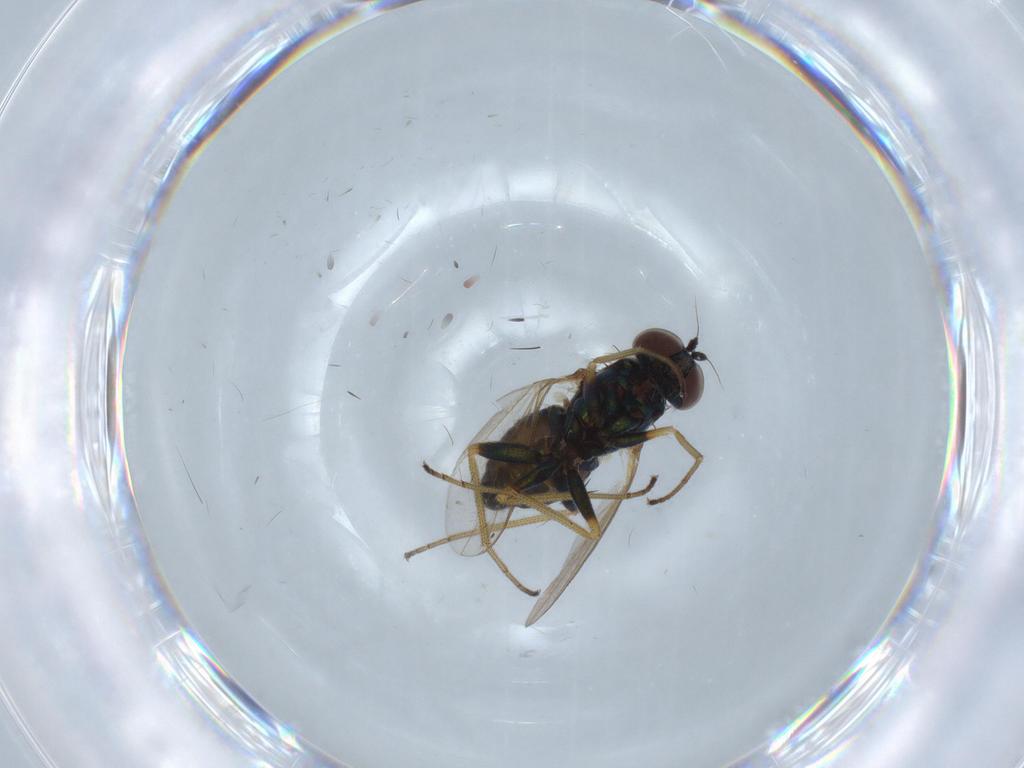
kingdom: Animalia
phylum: Arthropoda
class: Insecta
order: Diptera
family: Dolichopodidae
